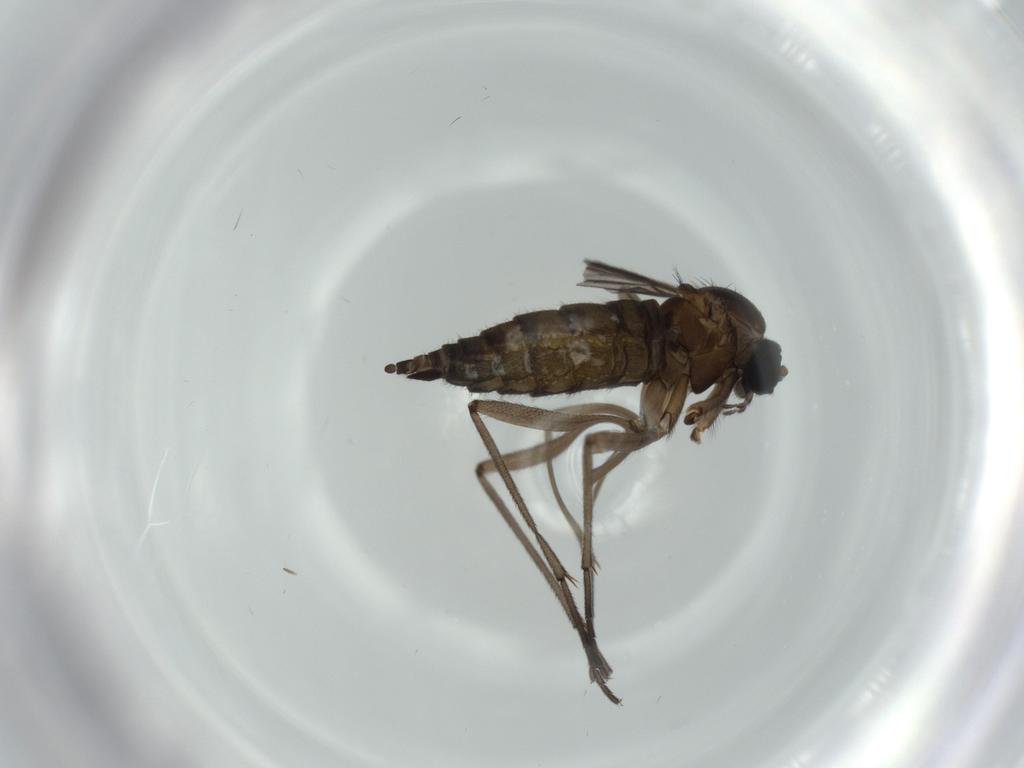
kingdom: Animalia
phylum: Arthropoda
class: Insecta
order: Diptera
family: Sciaridae
